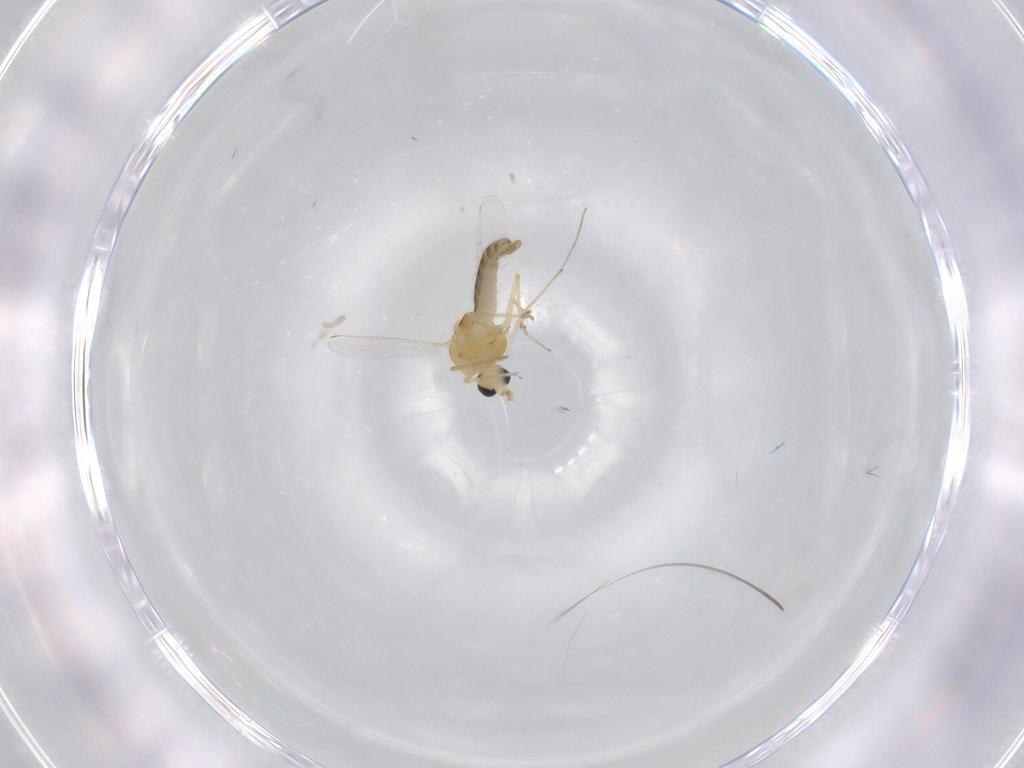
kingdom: Animalia
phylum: Arthropoda
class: Insecta
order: Diptera
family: Chironomidae
